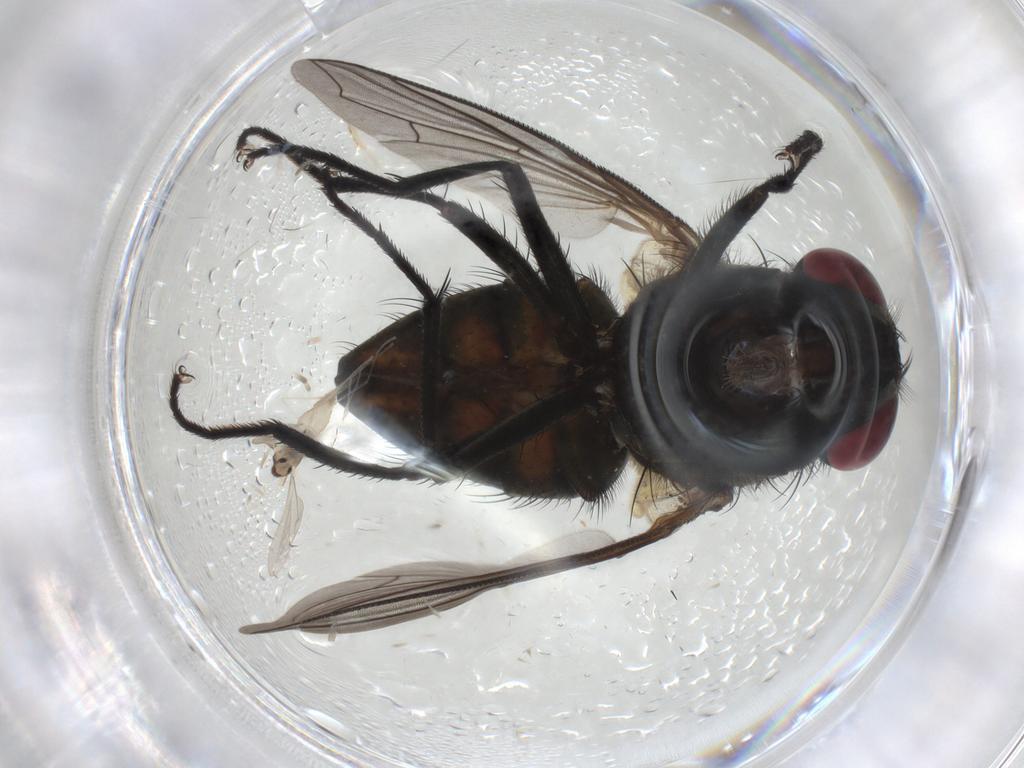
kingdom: Animalia
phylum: Arthropoda
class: Insecta
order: Diptera
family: Muscidae
